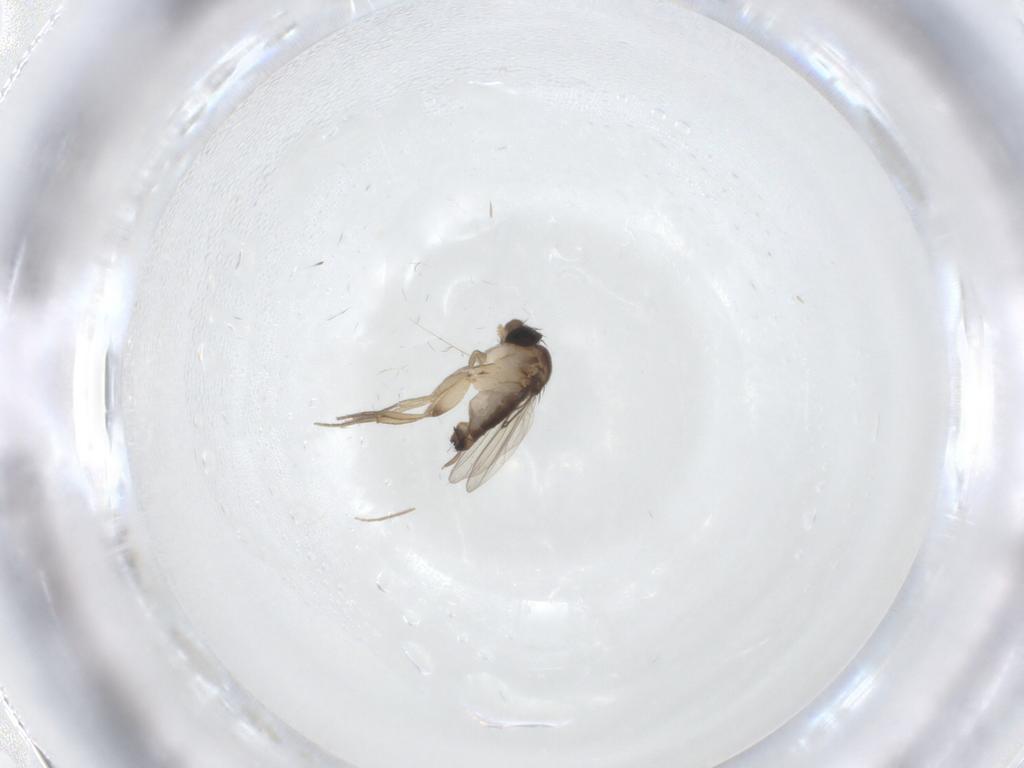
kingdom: Animalia
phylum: Arthropoda
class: Insecta
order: Diptera
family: Chironomidae
